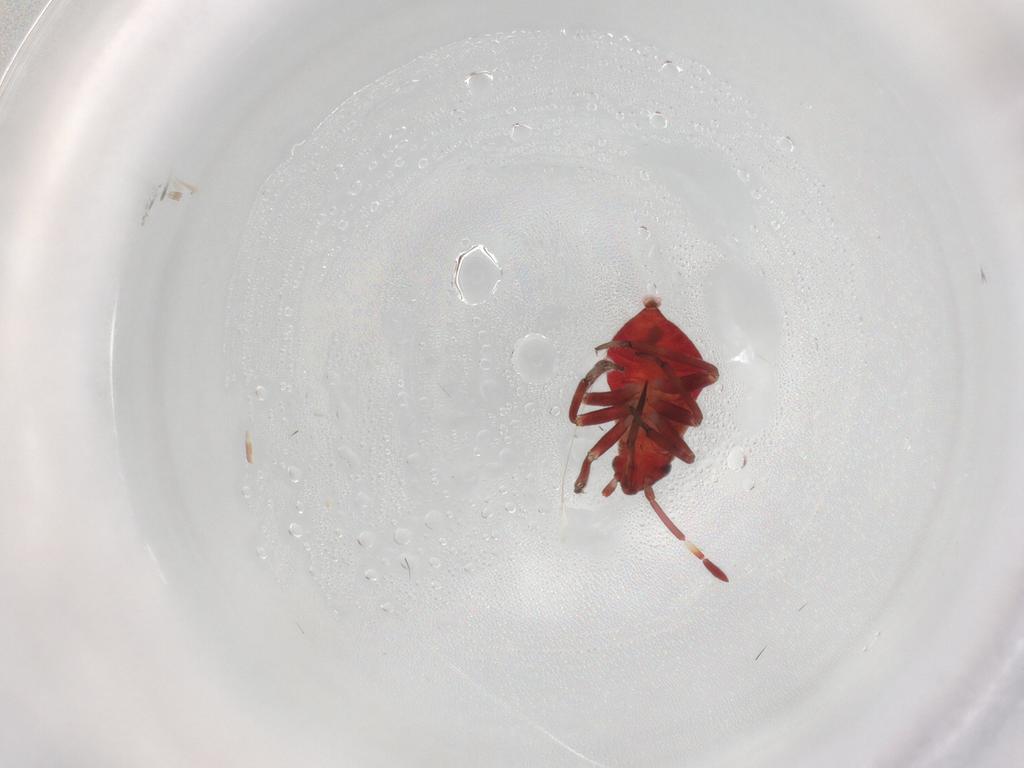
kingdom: Animalia
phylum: Arthropoda
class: Insecta
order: Hemiptera
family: Miridae
